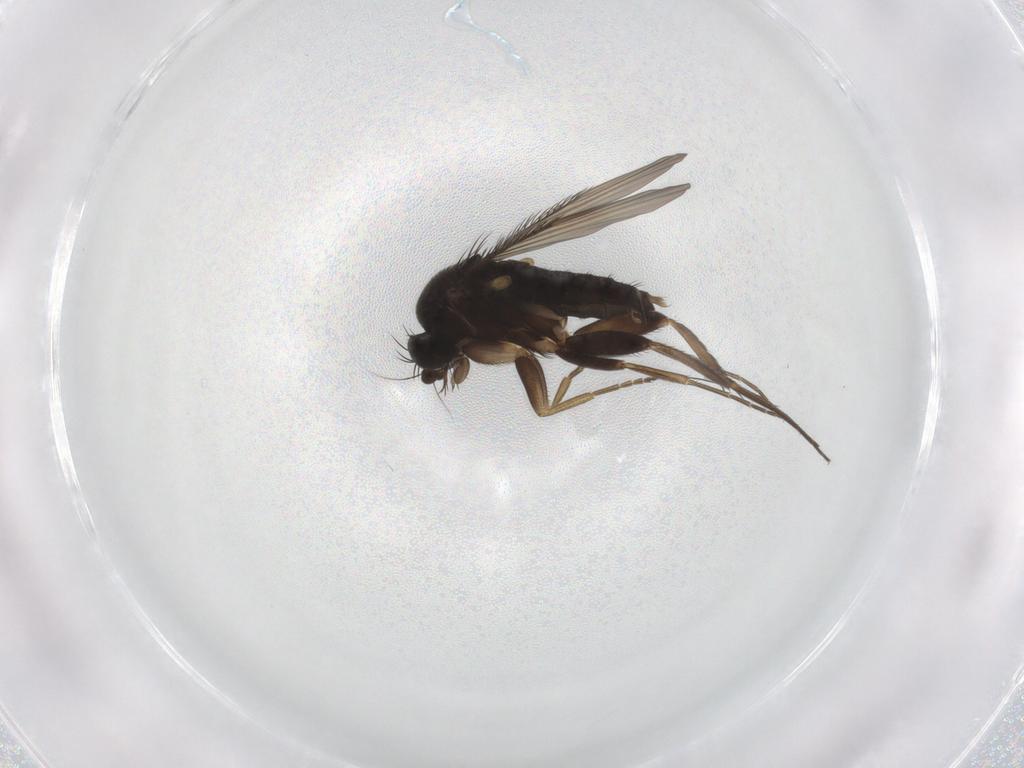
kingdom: Animalia
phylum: Arthropoda
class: Insecta
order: Diptera
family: Phoridae
